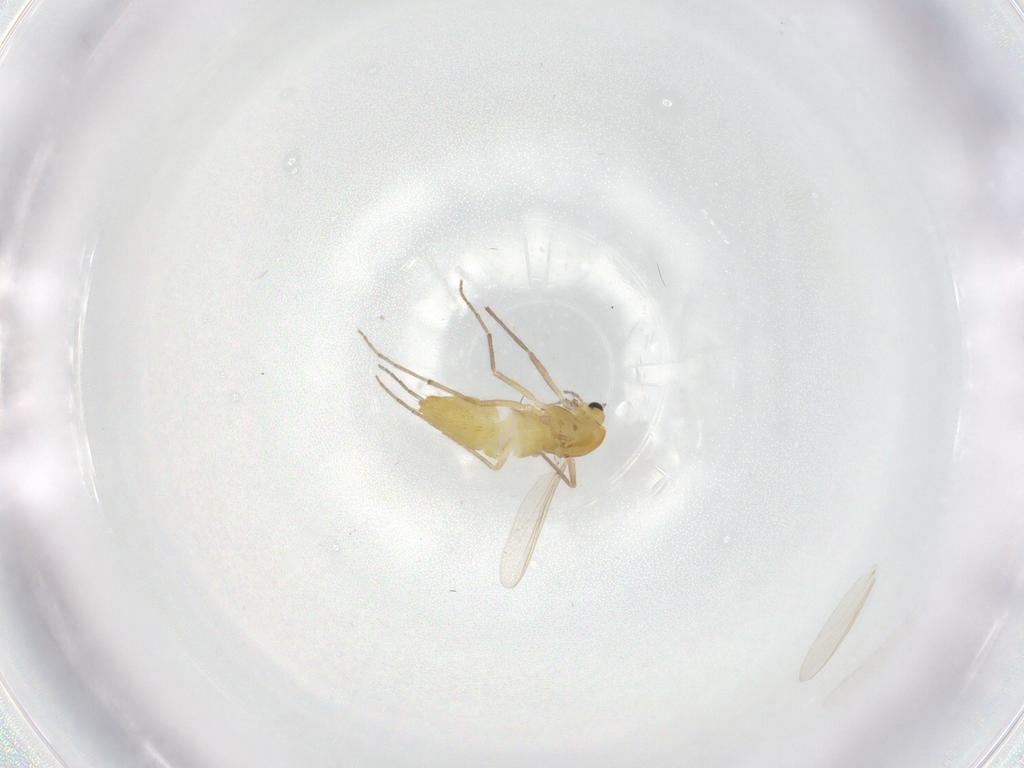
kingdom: Animalia
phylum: Arthropoda
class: Insecta
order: Diptera
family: Chironomidae
